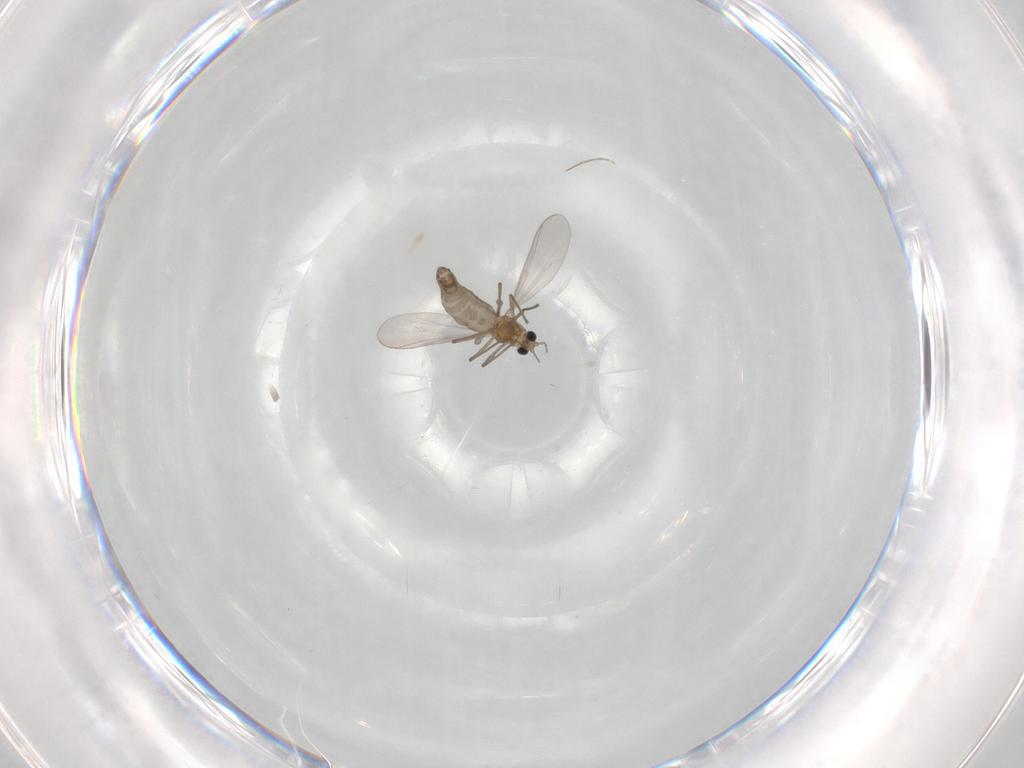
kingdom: Animalia
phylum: Arthropoda
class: Insecta
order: Diptera
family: Chironomidae
